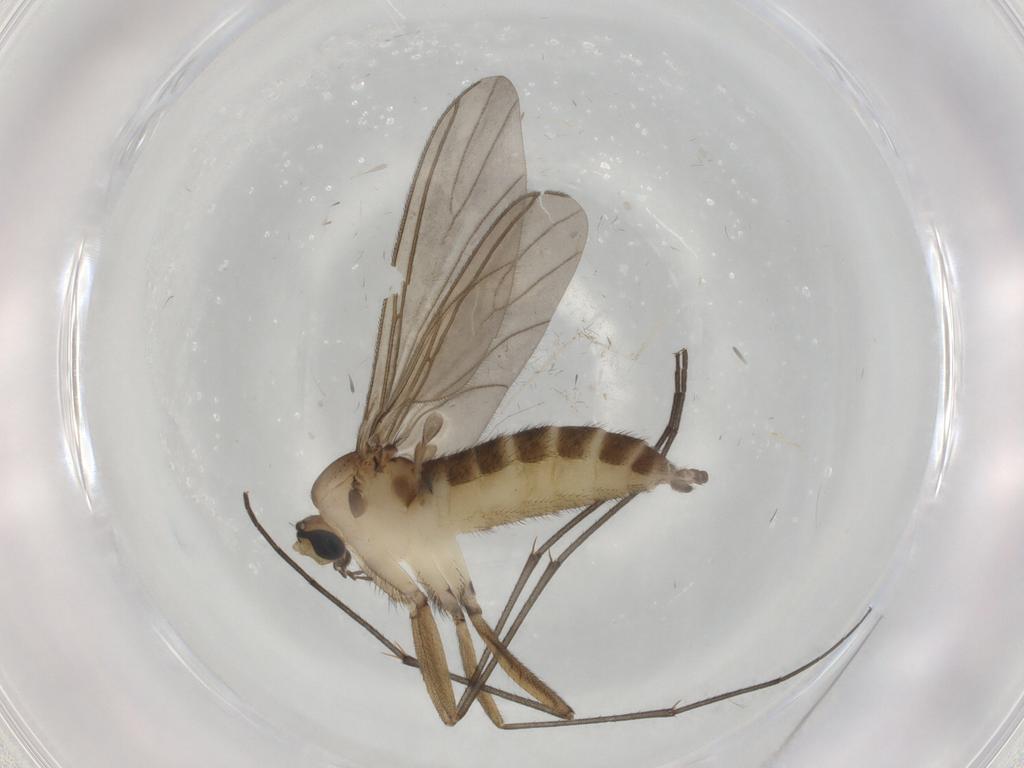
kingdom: Animalia
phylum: Arthropoda
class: Insecta
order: Diptera
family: Sciaridae
